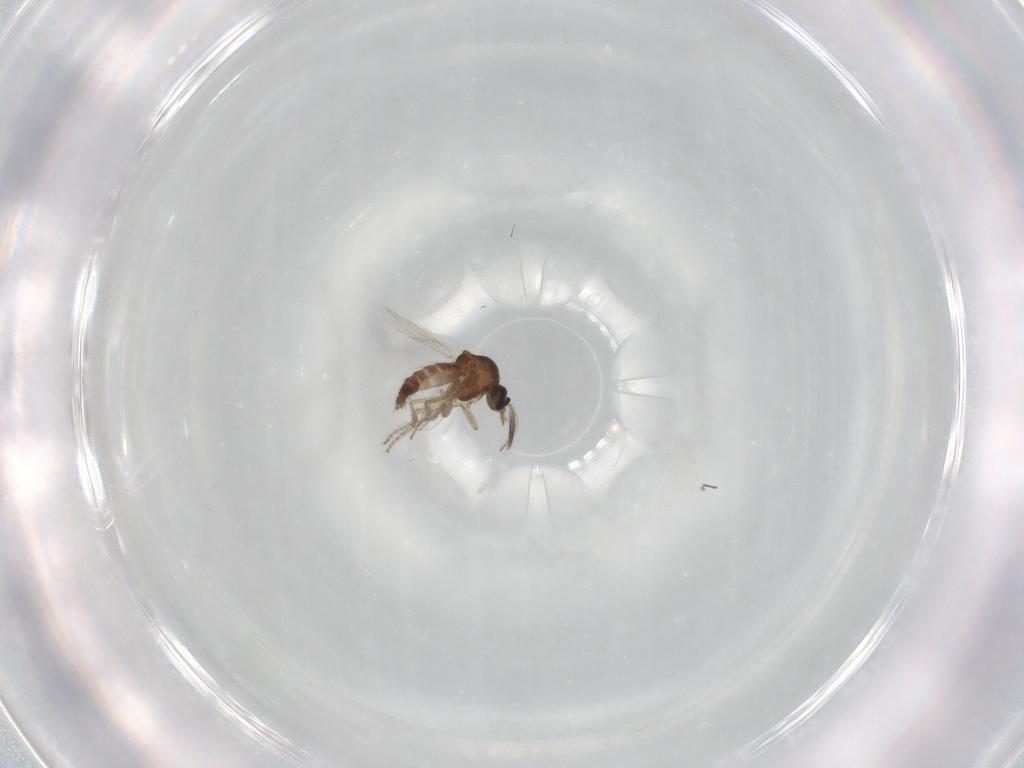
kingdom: Animalia
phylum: Arthropoda
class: Insecta
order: Diptera
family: Ceratopogonidae
